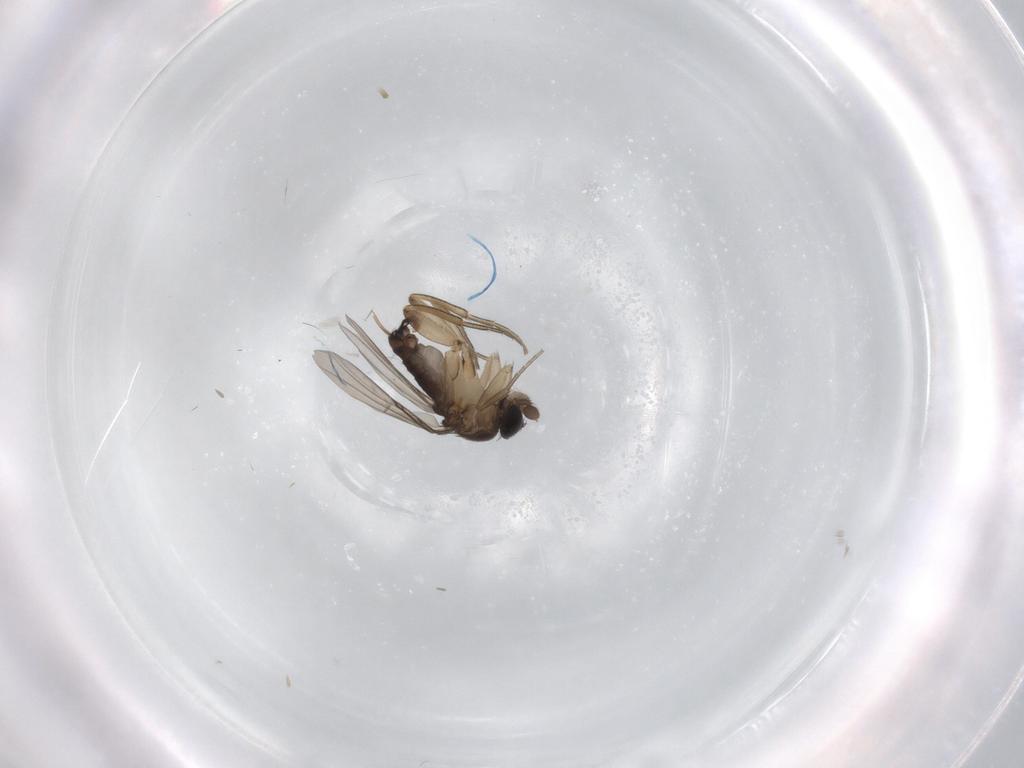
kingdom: Animalia
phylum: Arthropoda
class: Insecta
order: Diptera
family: Phoridae
